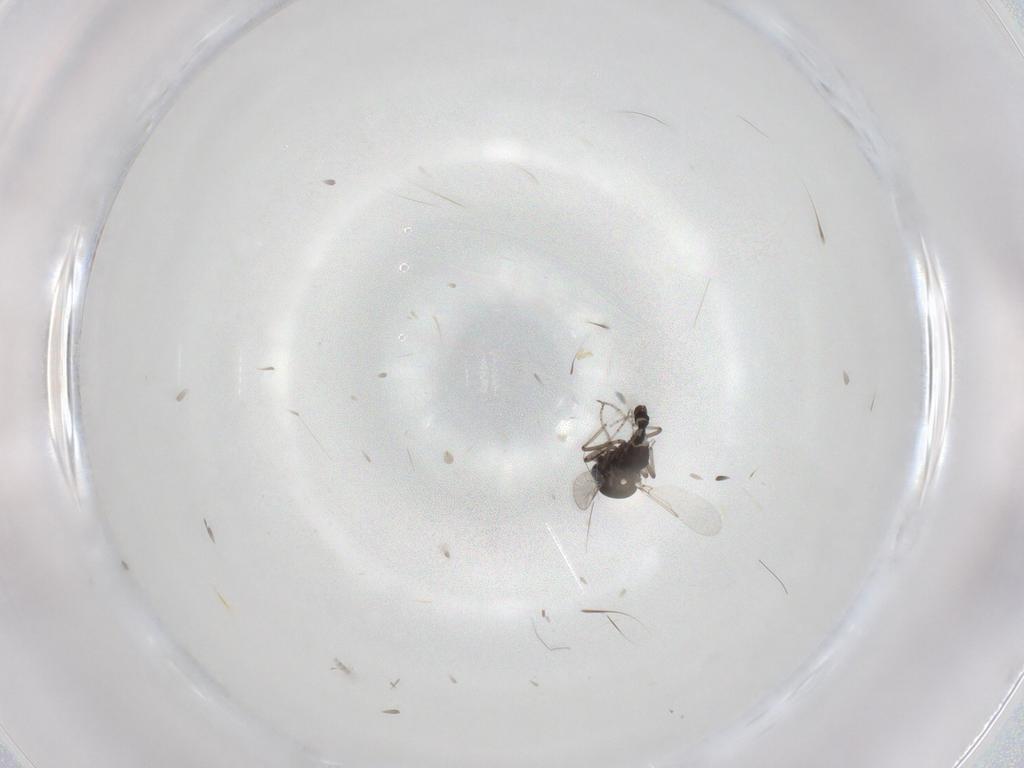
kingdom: Animalia
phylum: Arthropoda
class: Insecta
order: Diptera
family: Ceratopogonidae
